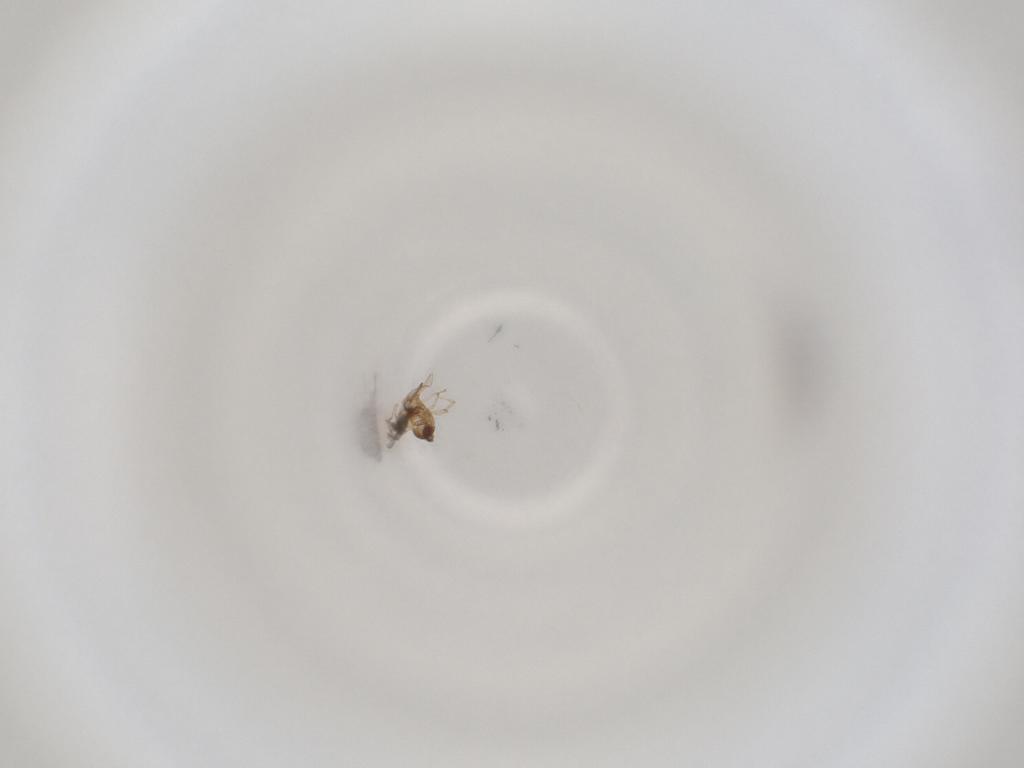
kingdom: Animalia
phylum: Arthropoda
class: Insecta
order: Diptera
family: Cecidomyiidae
